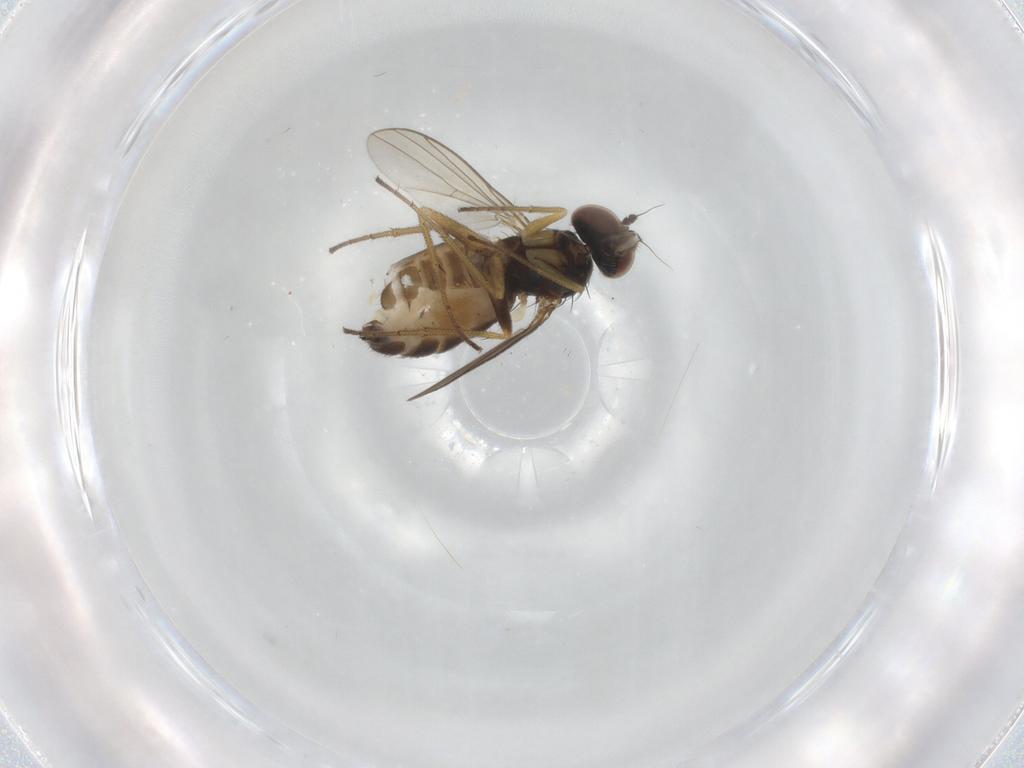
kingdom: Animalia
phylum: Arthropoda
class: Insecta
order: Diptera
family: Dolichopodidae
